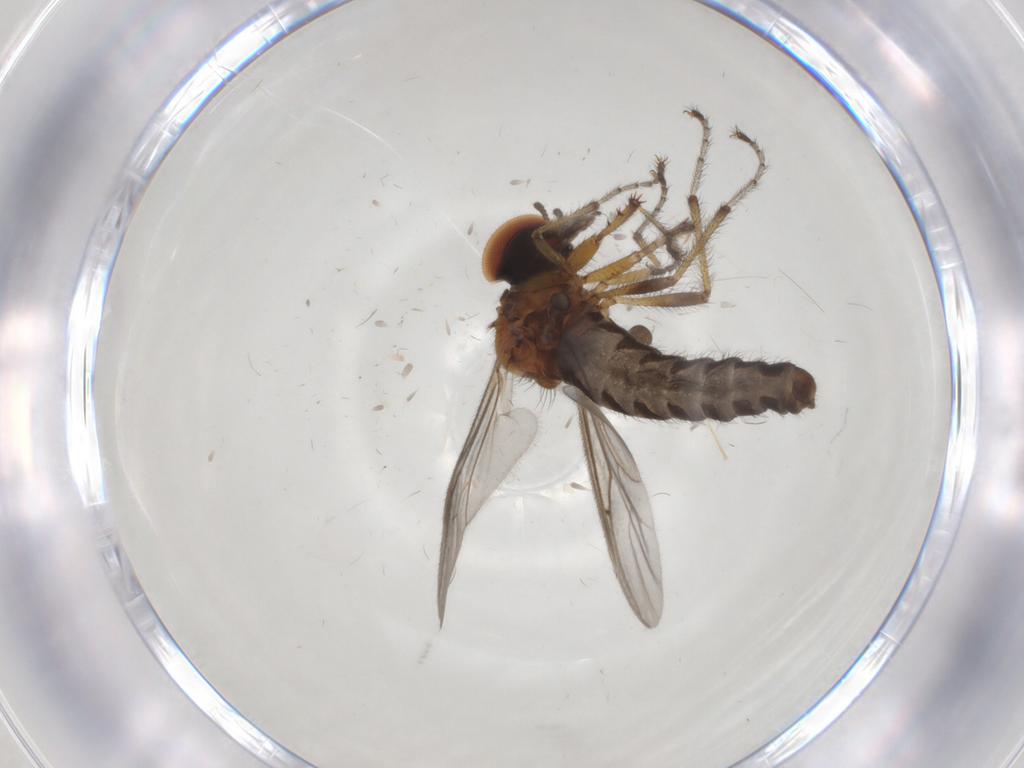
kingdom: Animalia
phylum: Arthropoda
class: Insecta
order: Diptera
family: Bibionidae
